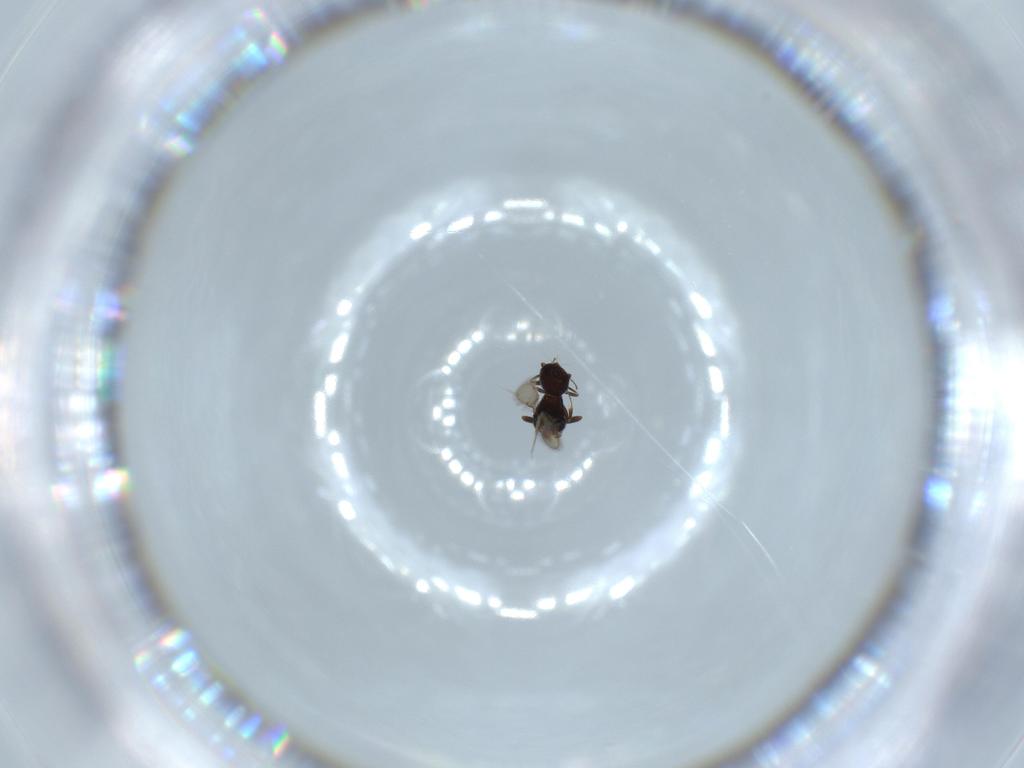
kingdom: Animalia
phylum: Arthropoda
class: Insecta
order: Hymenoptera
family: Scelionidae
